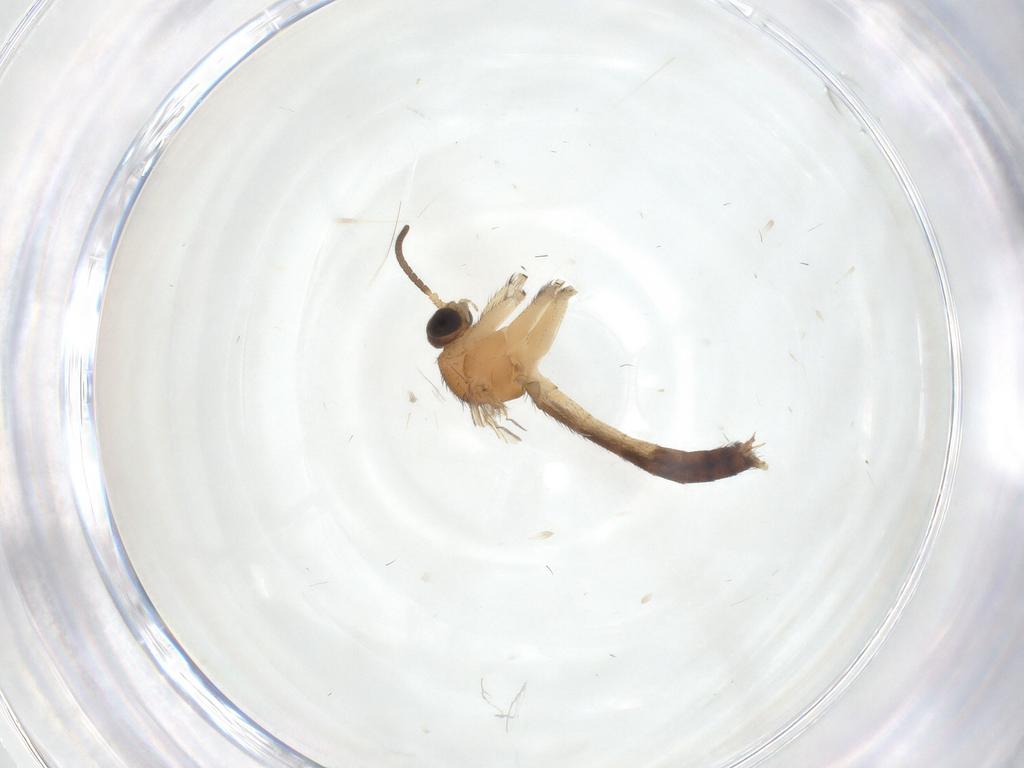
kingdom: Animalia
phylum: Arthropoda
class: Insecta
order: Diptera
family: Keroplatidae
